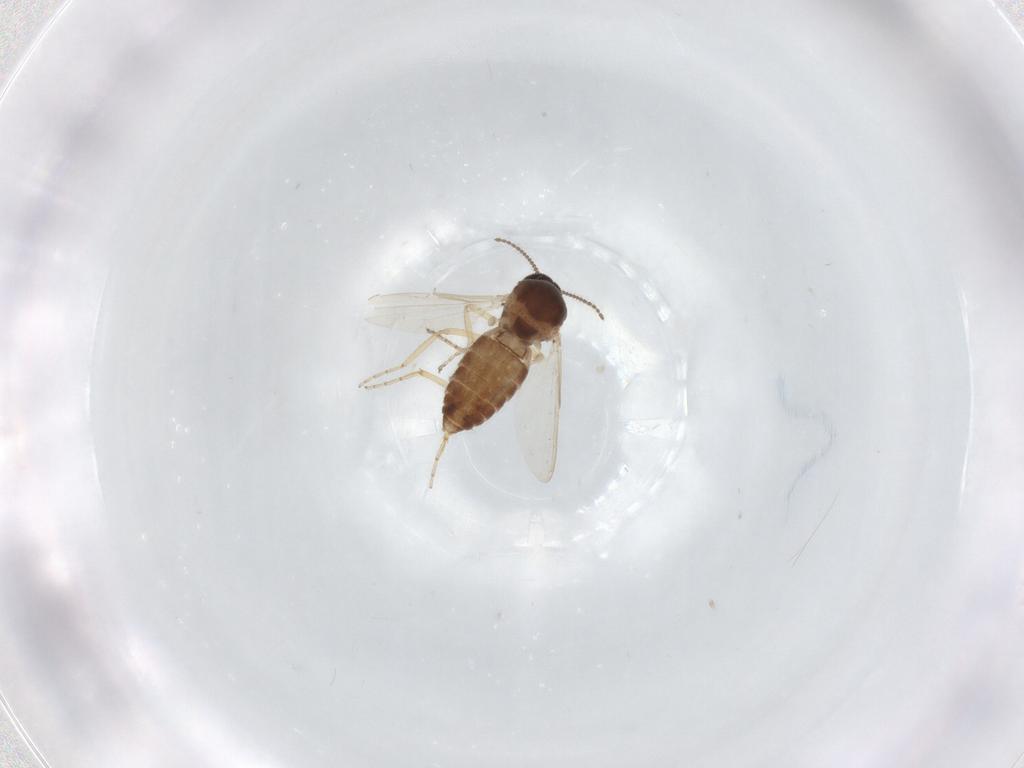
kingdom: Animalia
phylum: Arthropoda
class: Insecta
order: Diptera
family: Ceratopogonidae
